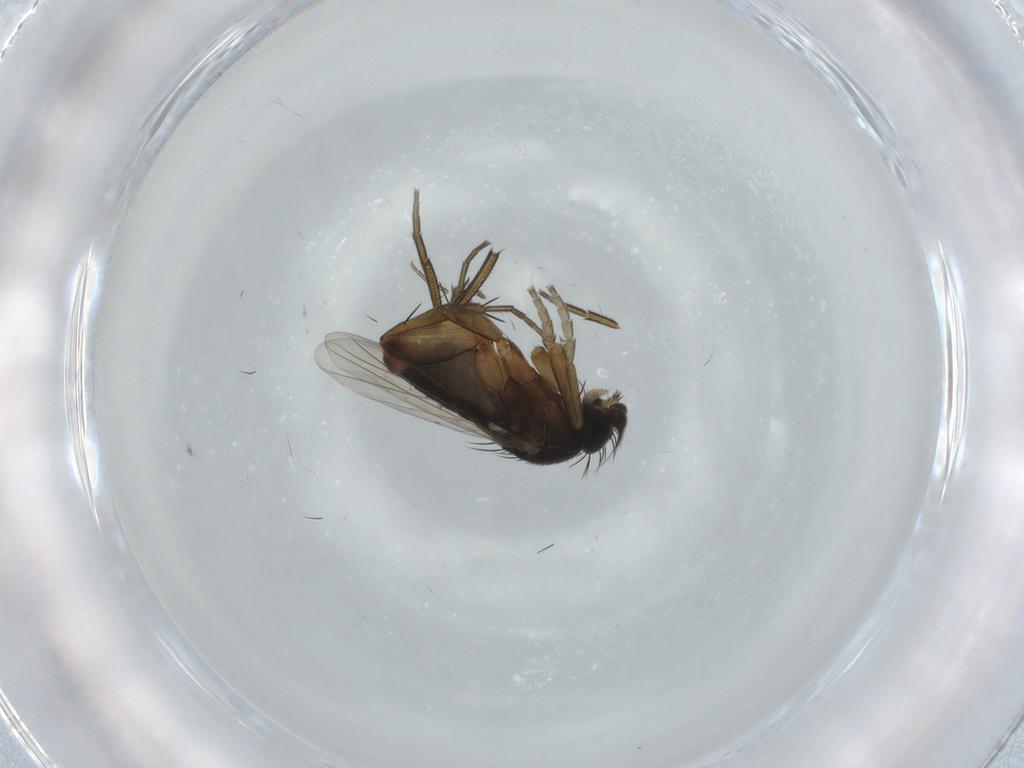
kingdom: Animalia
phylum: Arthropoda
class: Insecta
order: Diptera
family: Phoridae
